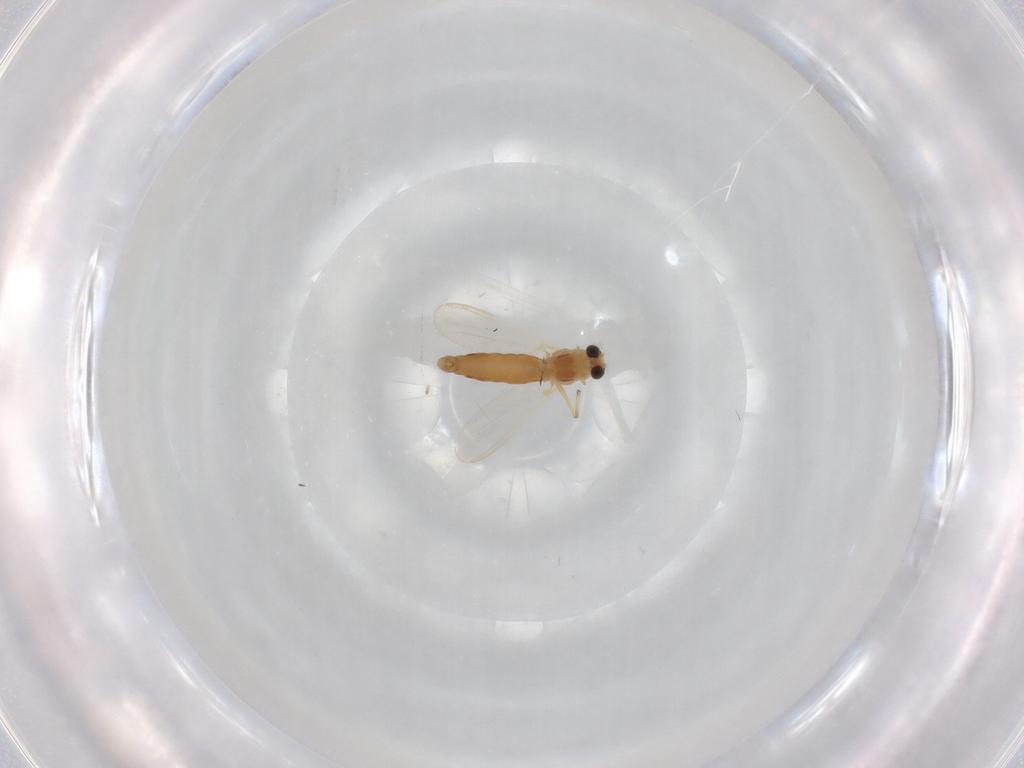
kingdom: Animalia
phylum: Arthropoda
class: Insecta
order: Diptera
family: Chironomidae
